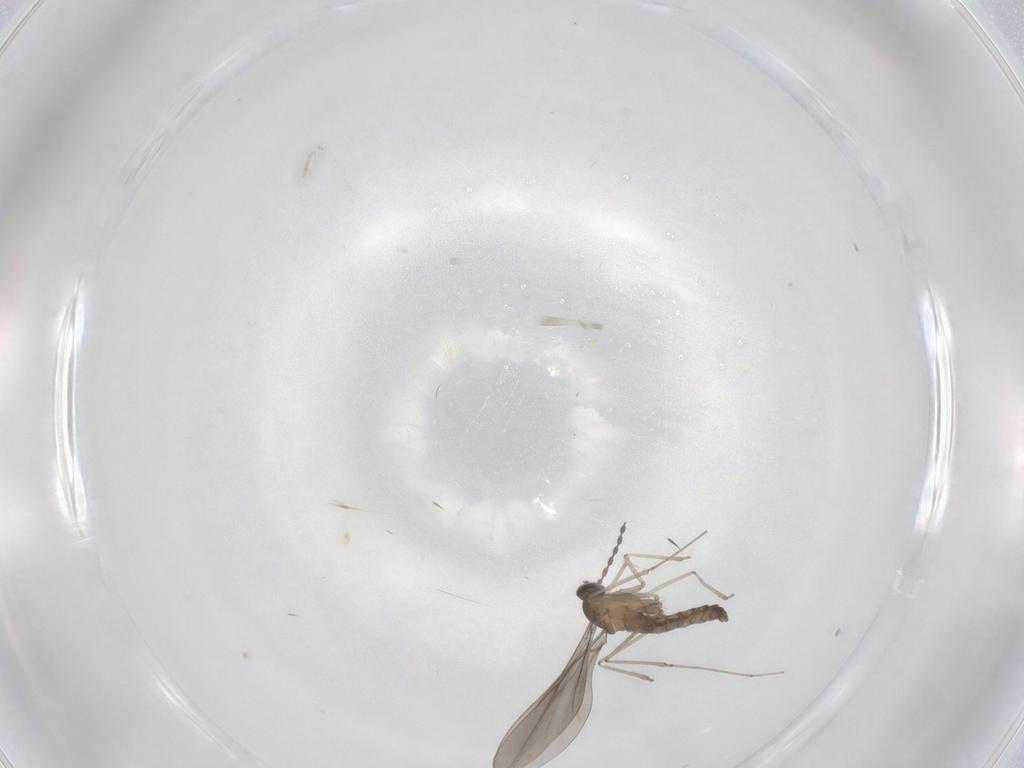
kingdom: Animalia
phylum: Arthropoda
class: Insecta
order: Diptera
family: Sciaridae
